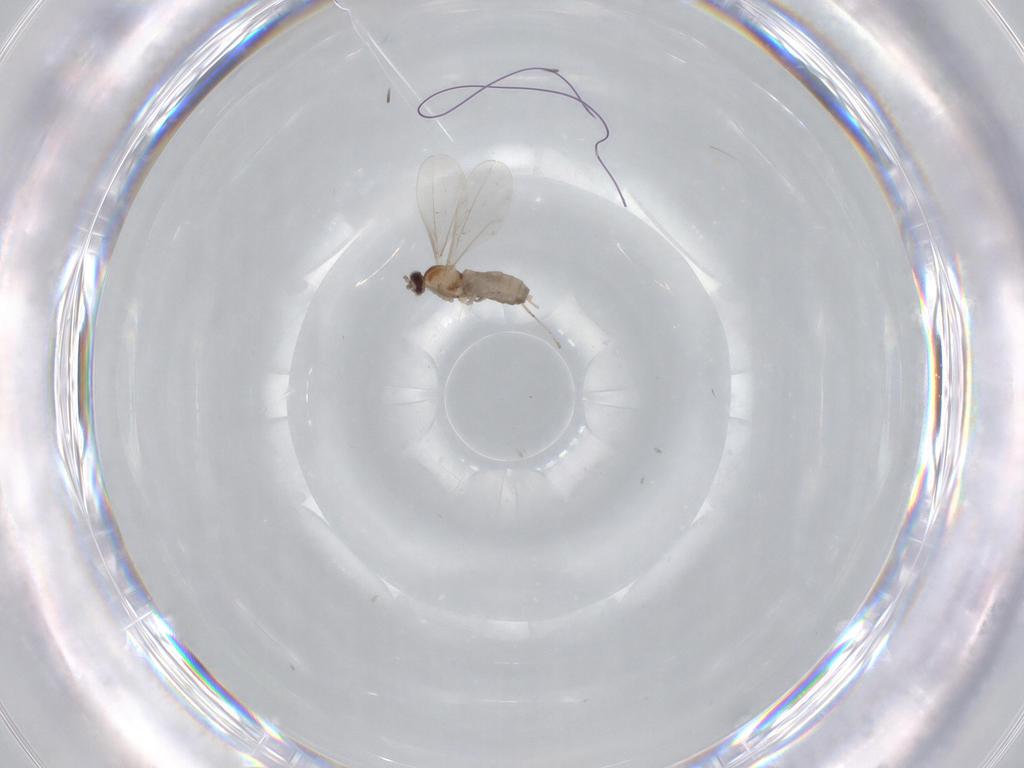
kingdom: Animalia
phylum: Arthropoda
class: Insecta
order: Diptera
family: Cecidomyiidae
